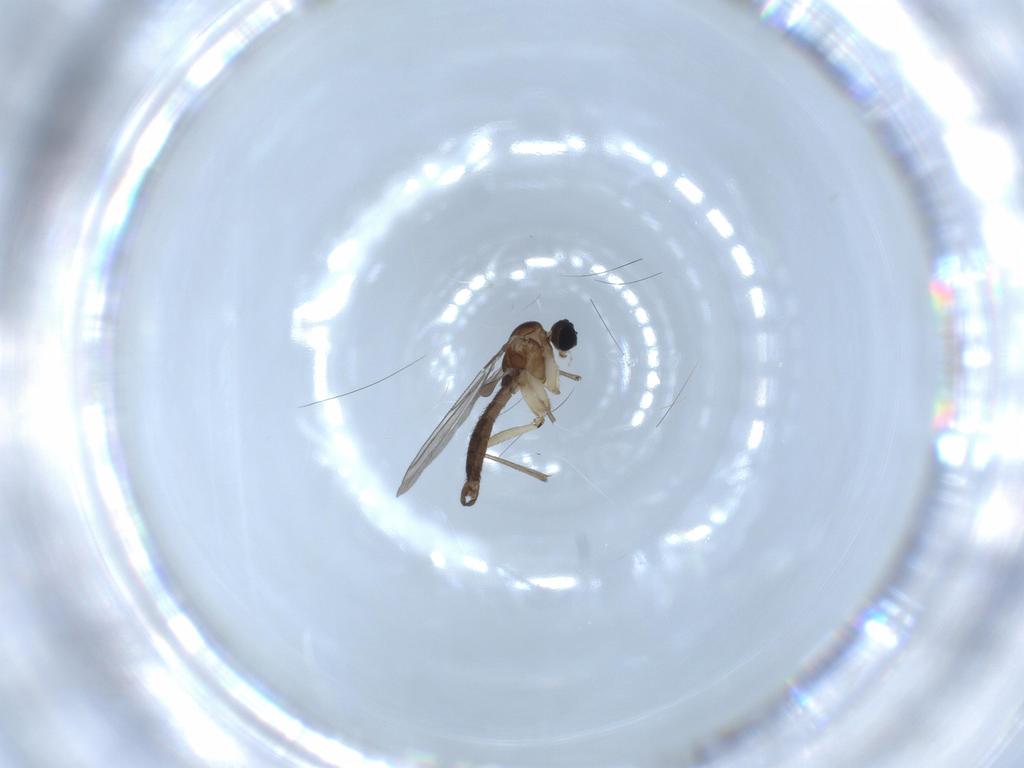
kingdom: Animalia
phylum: Arthropoda
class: Insecta
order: Diptera
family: Sciaridae
